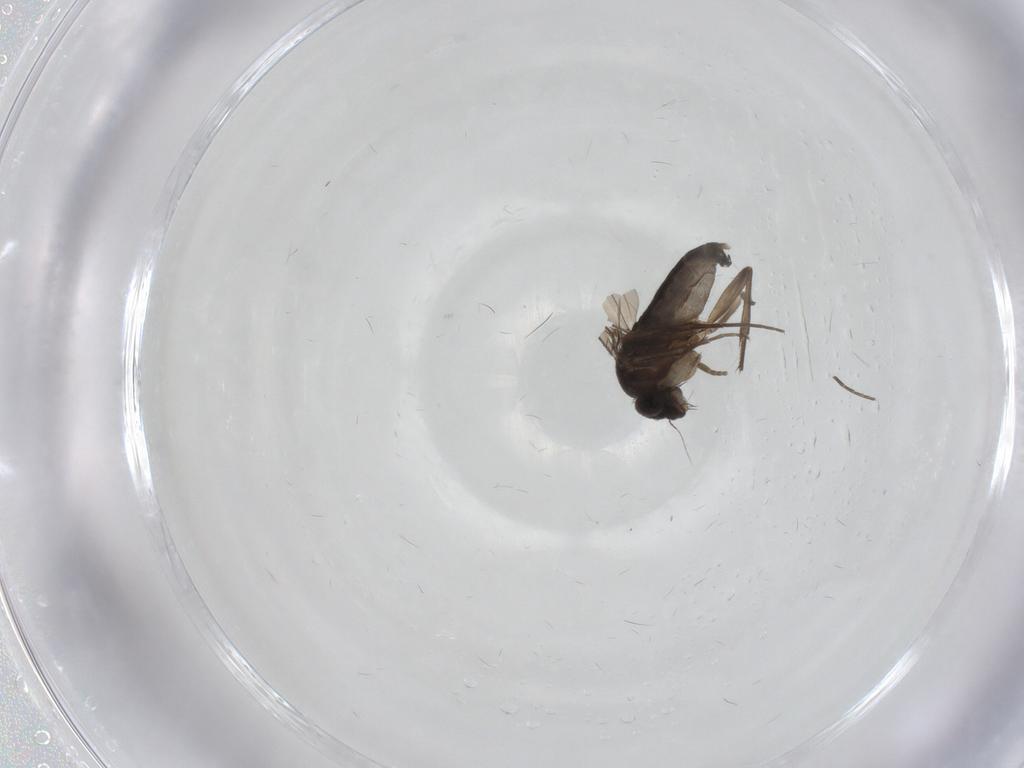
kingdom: Animalia
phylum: Arthropoda
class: Insecta
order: Diptera
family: Phoridae
